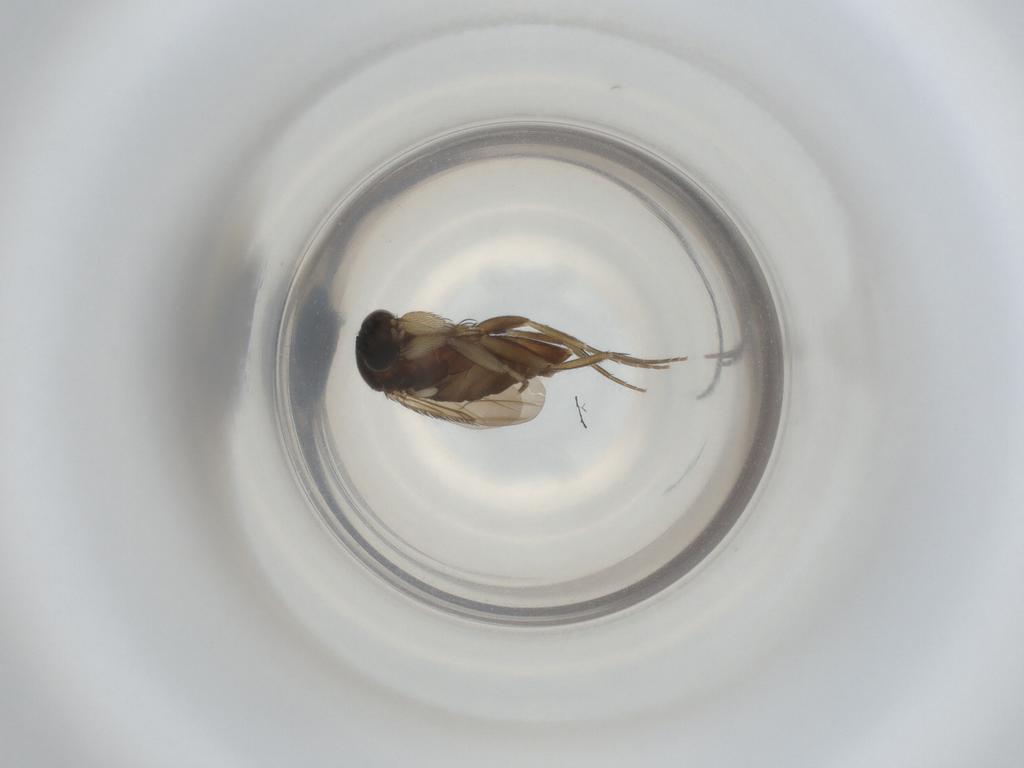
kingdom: Animalia
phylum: Arthropoda
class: Insecta
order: Diptera
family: Phoridae
